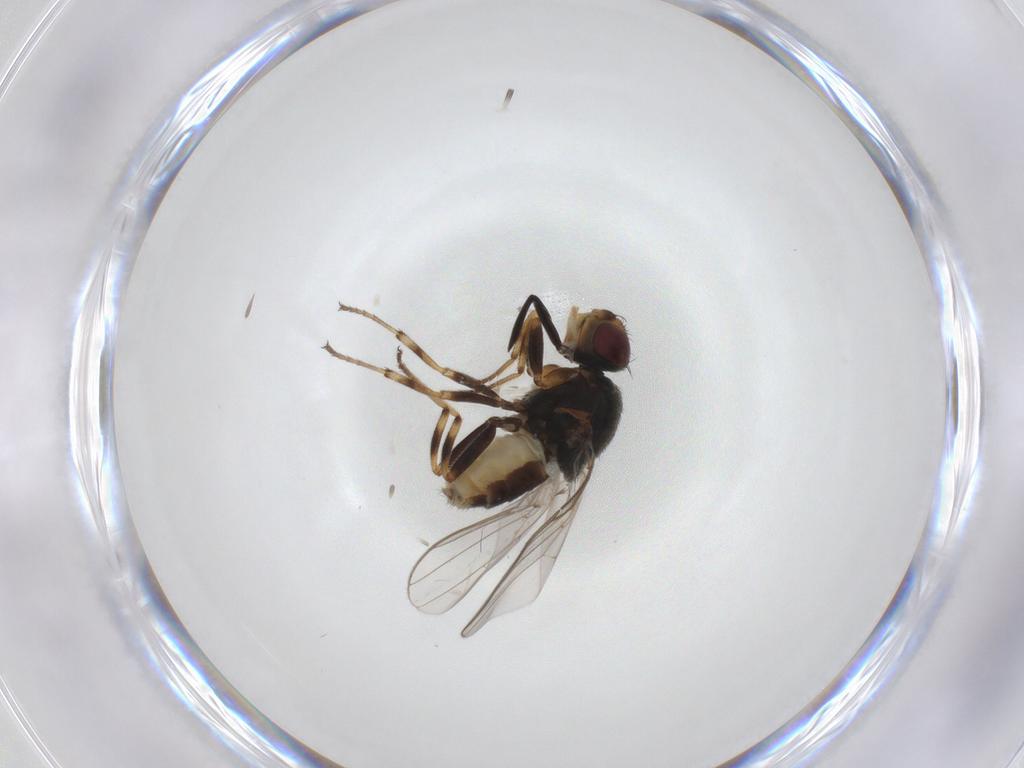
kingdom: Animalia
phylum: Arthropoda
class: Insecta
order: Diptera
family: Chloropidae
